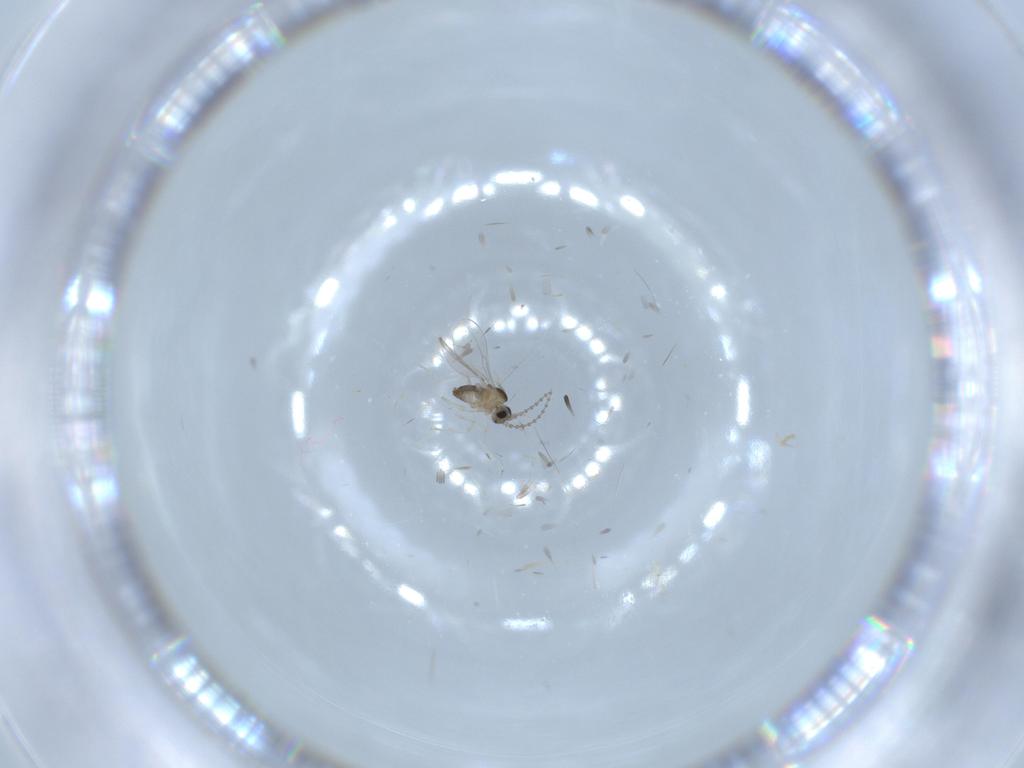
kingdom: Animalia
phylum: Arthropoda
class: Insecta
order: Diptera
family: Cecidomyiidae
